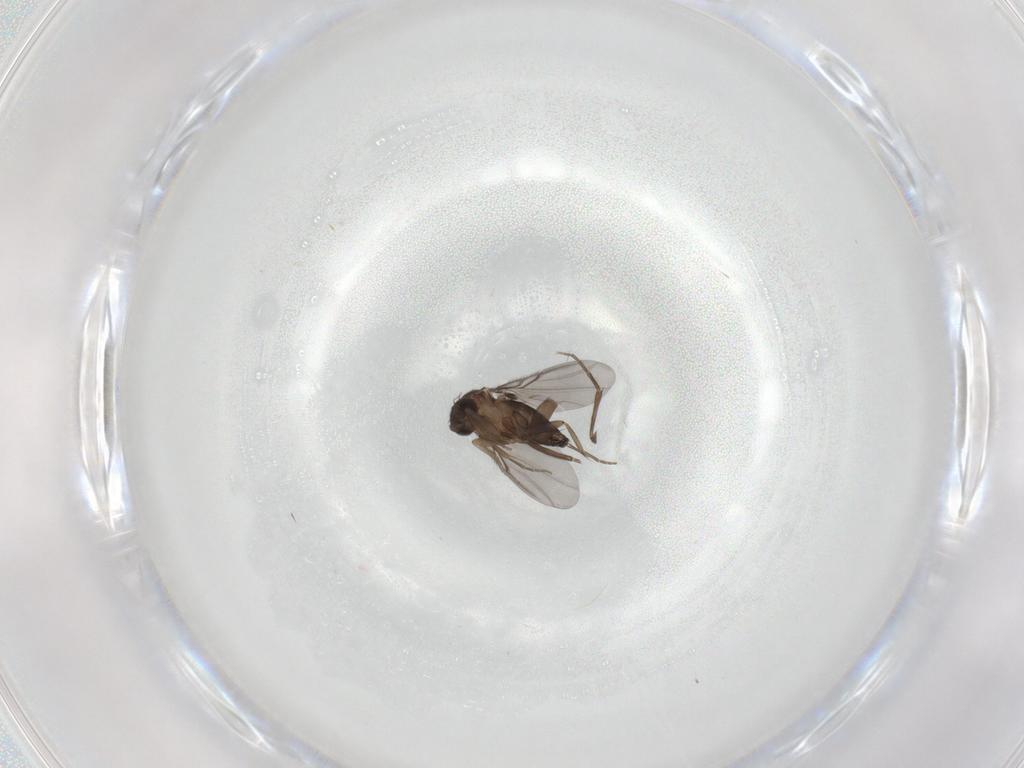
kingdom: Animalia
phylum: Arthropoda
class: Insecta
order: Diptera
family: Phoridae
